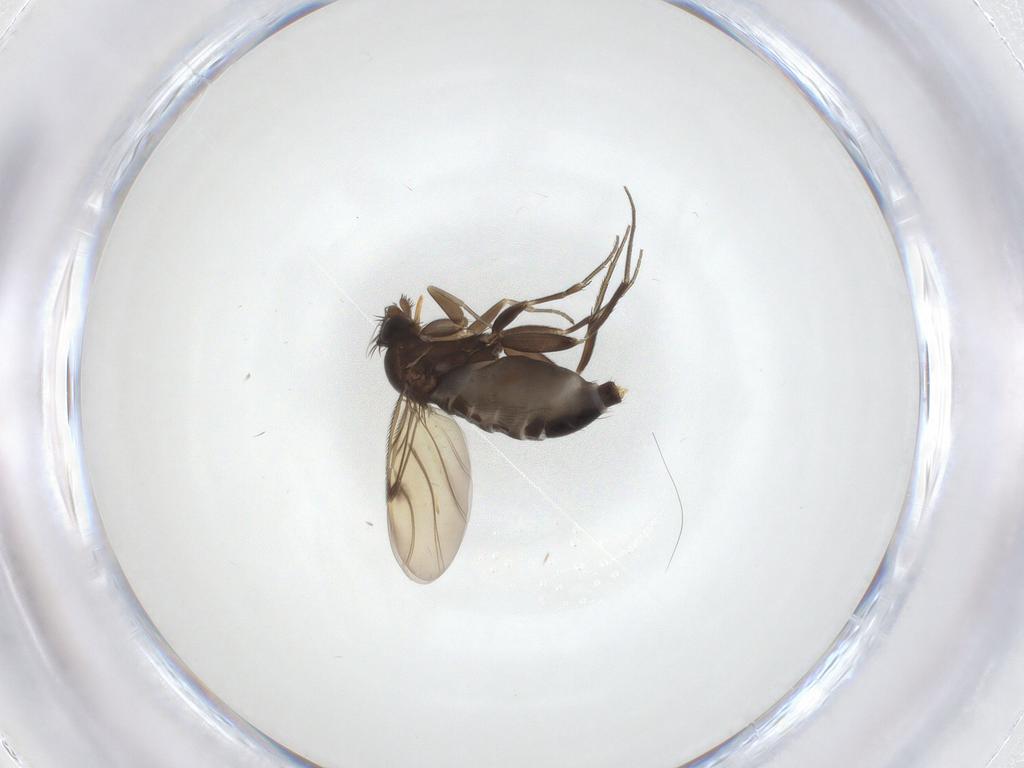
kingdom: Animalia
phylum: Arthropoda
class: Insecta
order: Diptera
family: Phoridae
